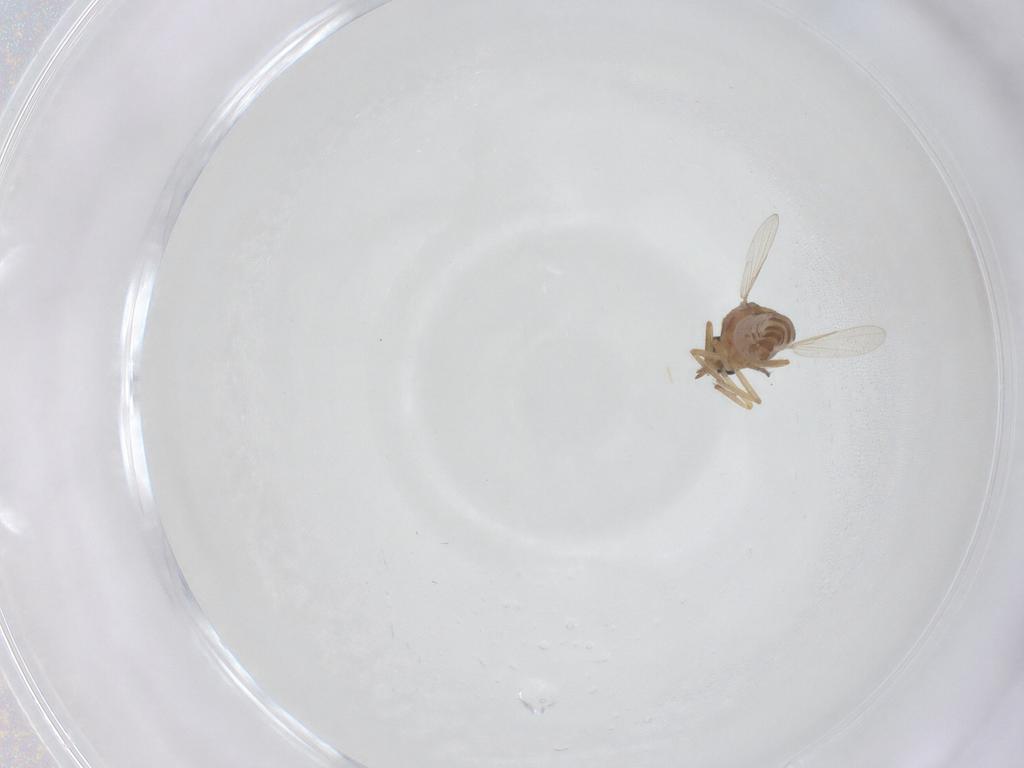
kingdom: Animalia
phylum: Arthropoda
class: Insecta
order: Diptera
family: Ceratopogonidae
